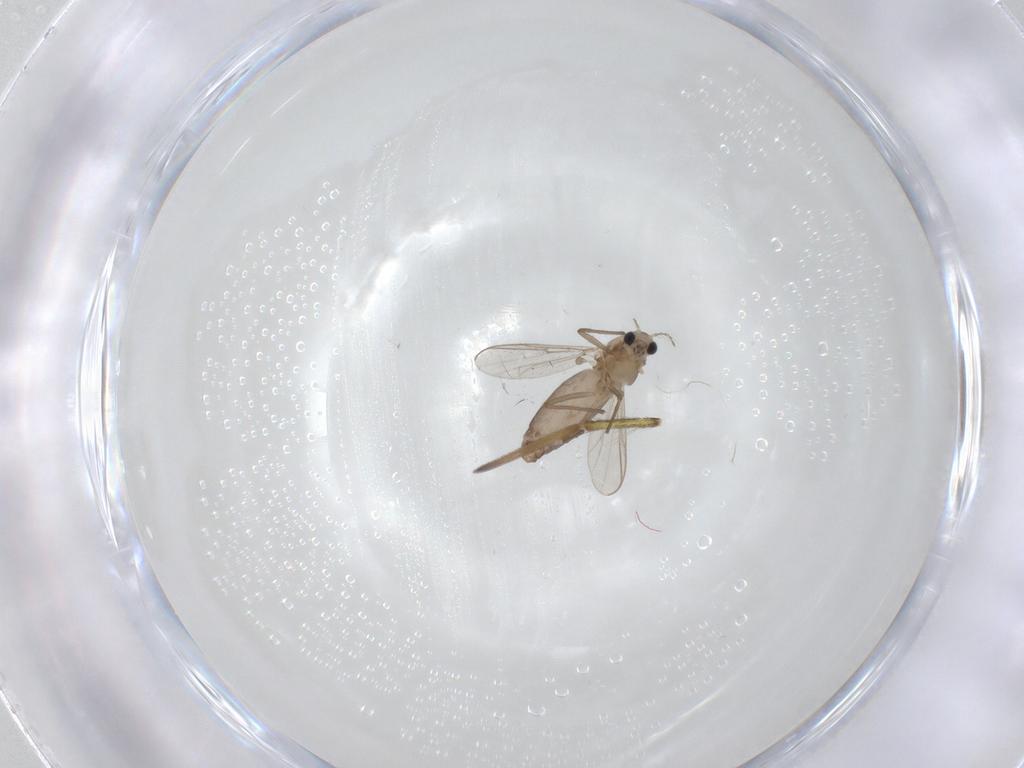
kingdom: Animalia
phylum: Arthropoda
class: Insecta
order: Diptera
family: Chironomidae
